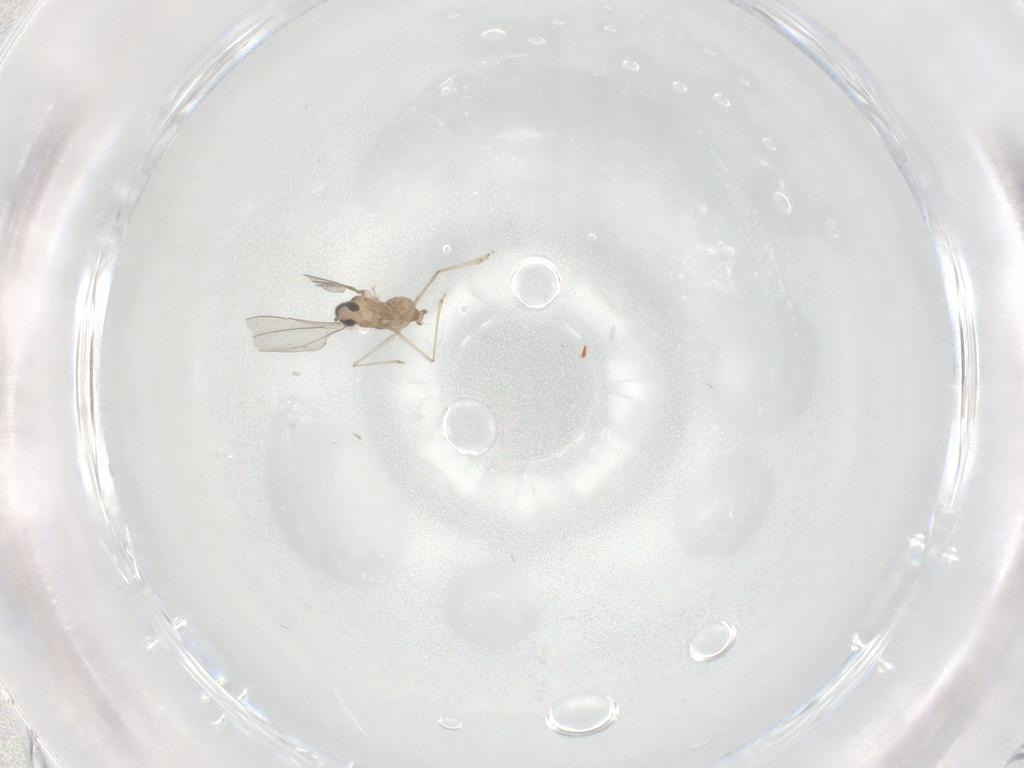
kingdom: Animalia
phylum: Arthropoda
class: Insecta
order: Diptera
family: Cecidomyiidae
